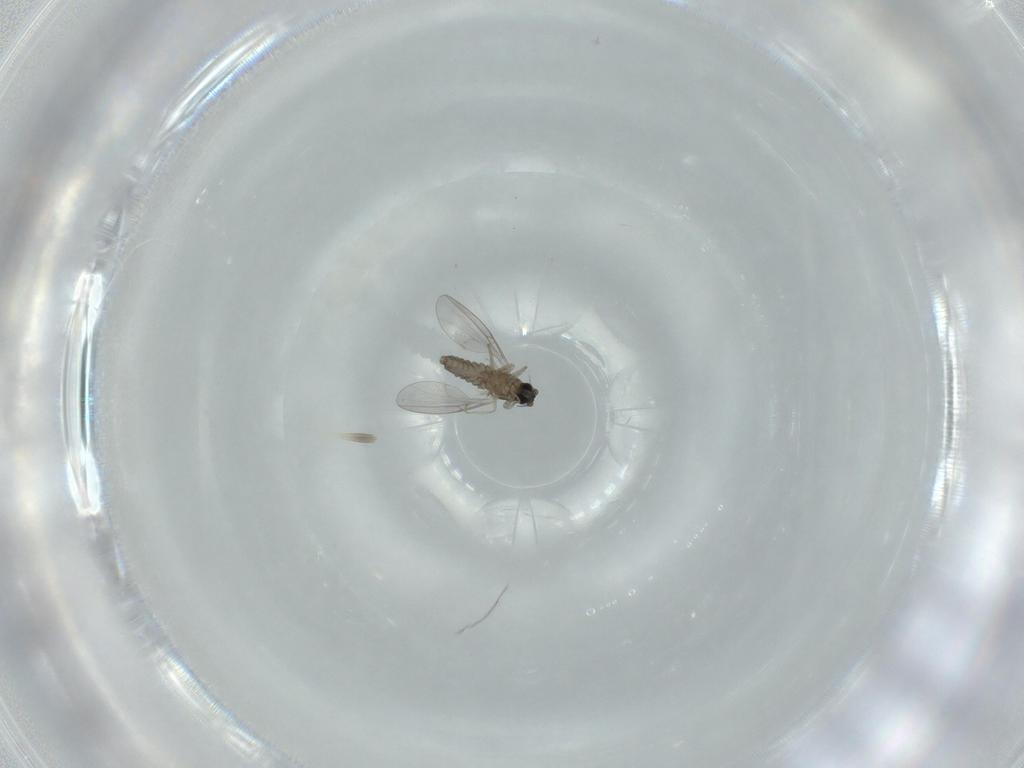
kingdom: Animalia
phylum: Arthropoda
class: Insecta
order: Diptera
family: Cecidomyiidae
